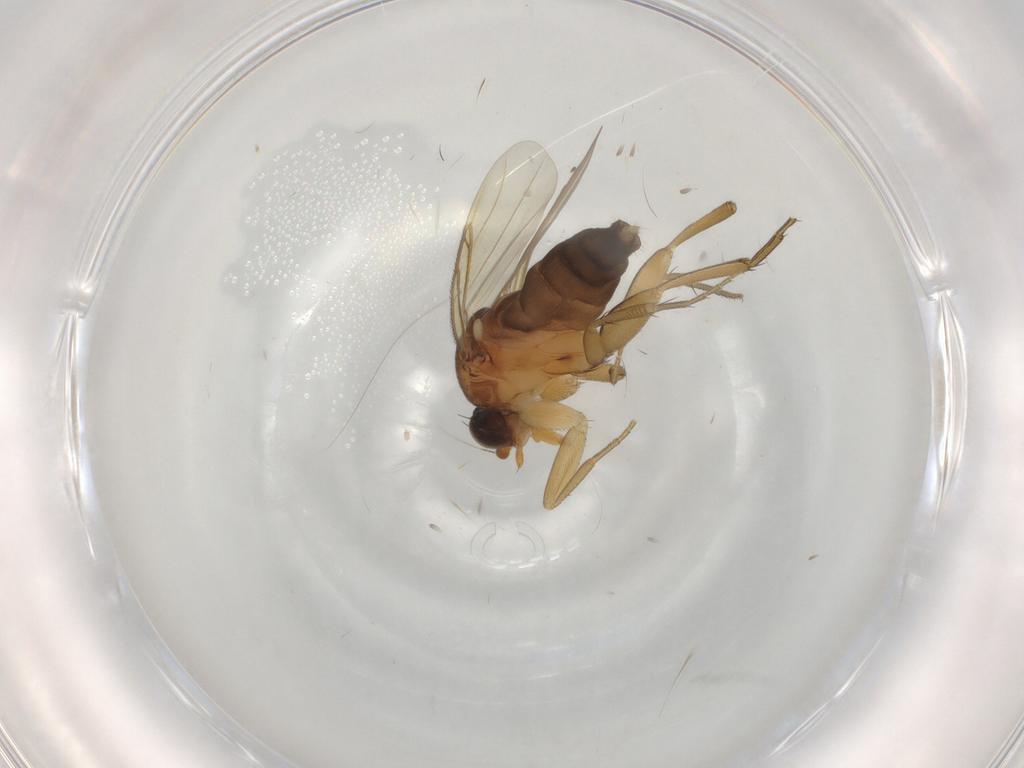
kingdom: Animalia
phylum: Arthropoda
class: Insecta
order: Diptera
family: Phoridae
